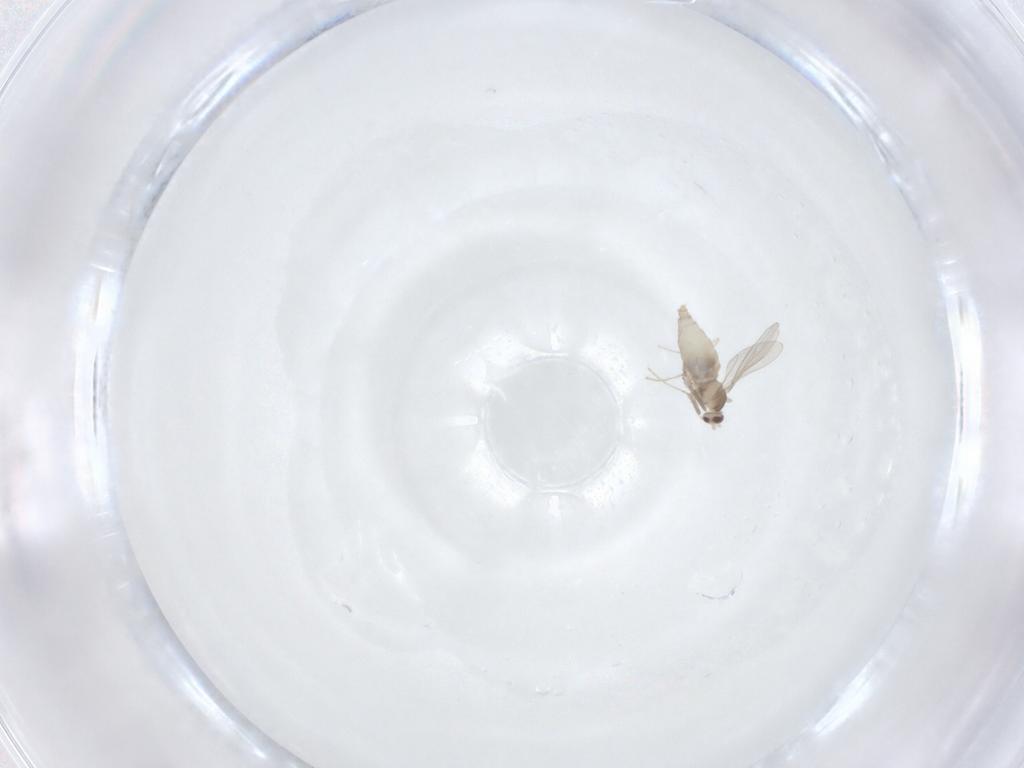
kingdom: Animalia
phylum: Arthropoda
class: Insecta
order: Diptera
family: Cecidomyiidae
